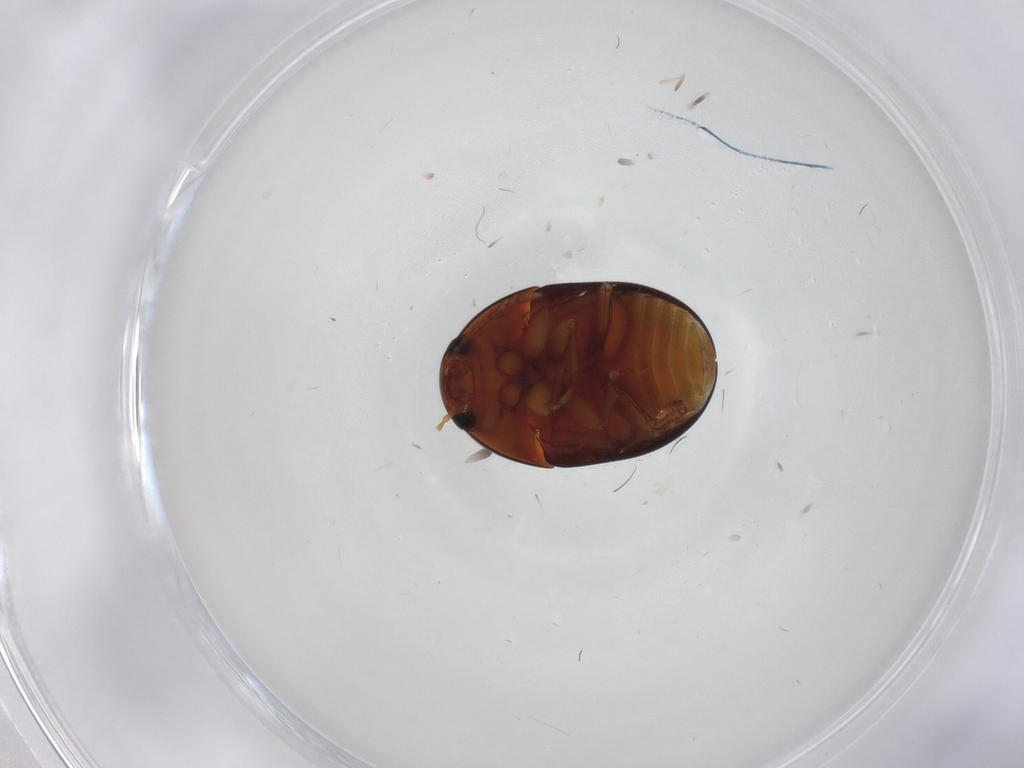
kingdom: Animalia
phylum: Arthropoda
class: Insecta
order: Coleoptera
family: Phalacridae
